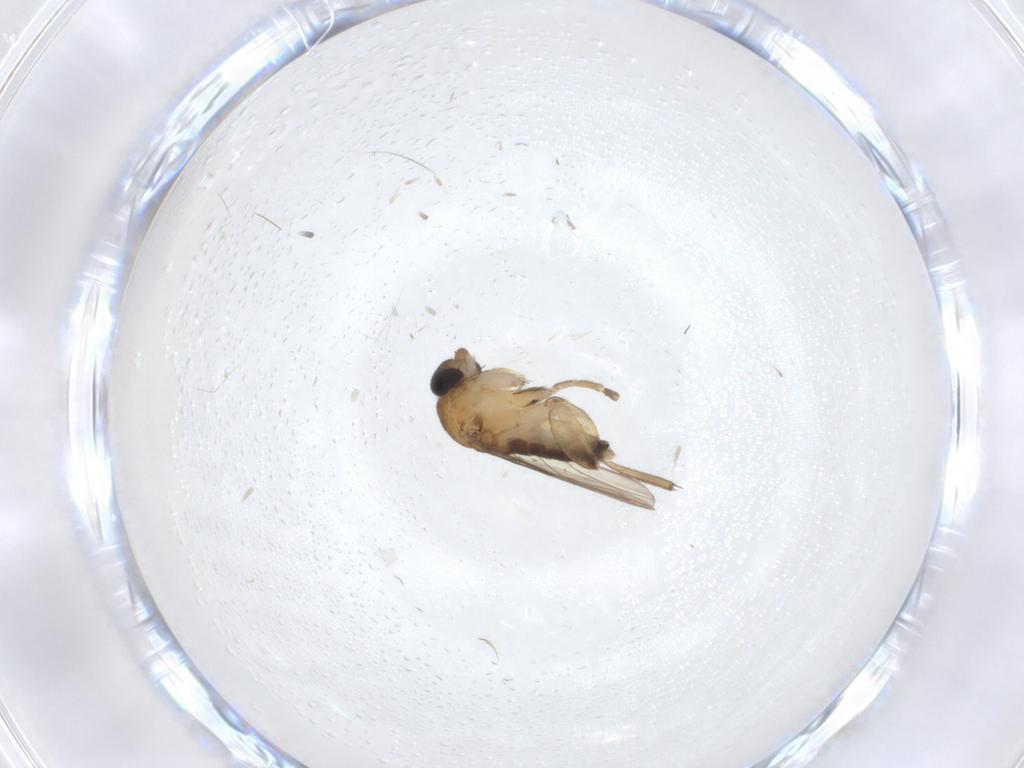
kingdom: Animalia
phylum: Arthropoda
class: Insecta
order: Diptera
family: Phoridae
